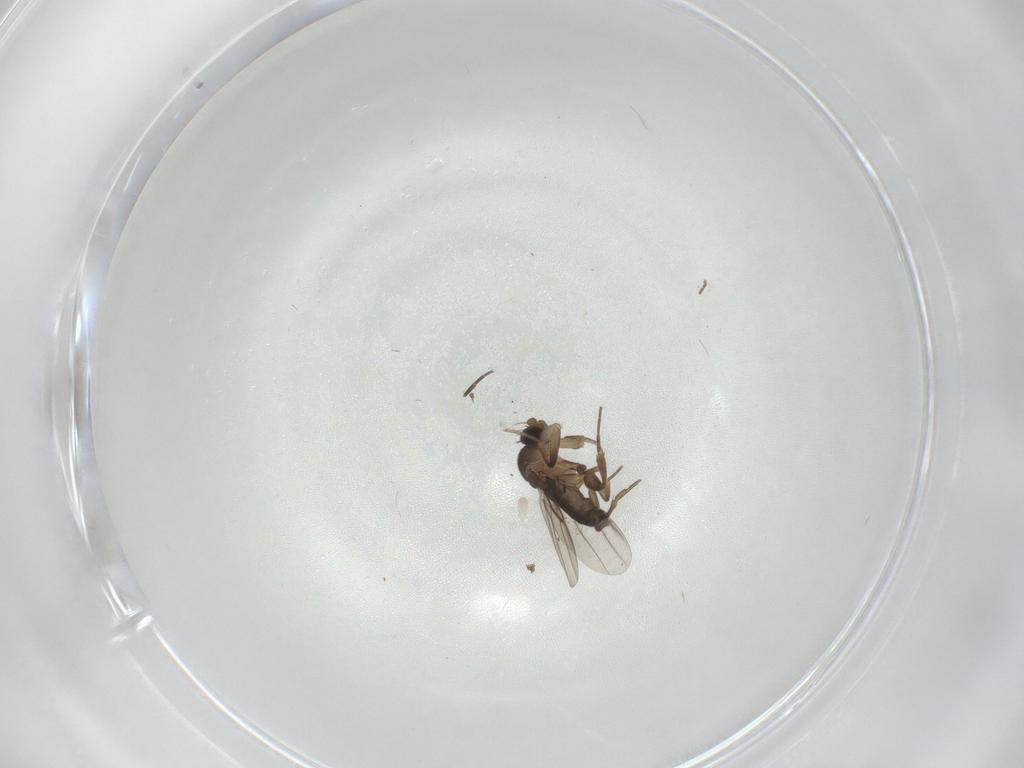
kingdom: Animalia
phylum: Arthropoda
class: Insecta
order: Diptera
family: Phoridae
